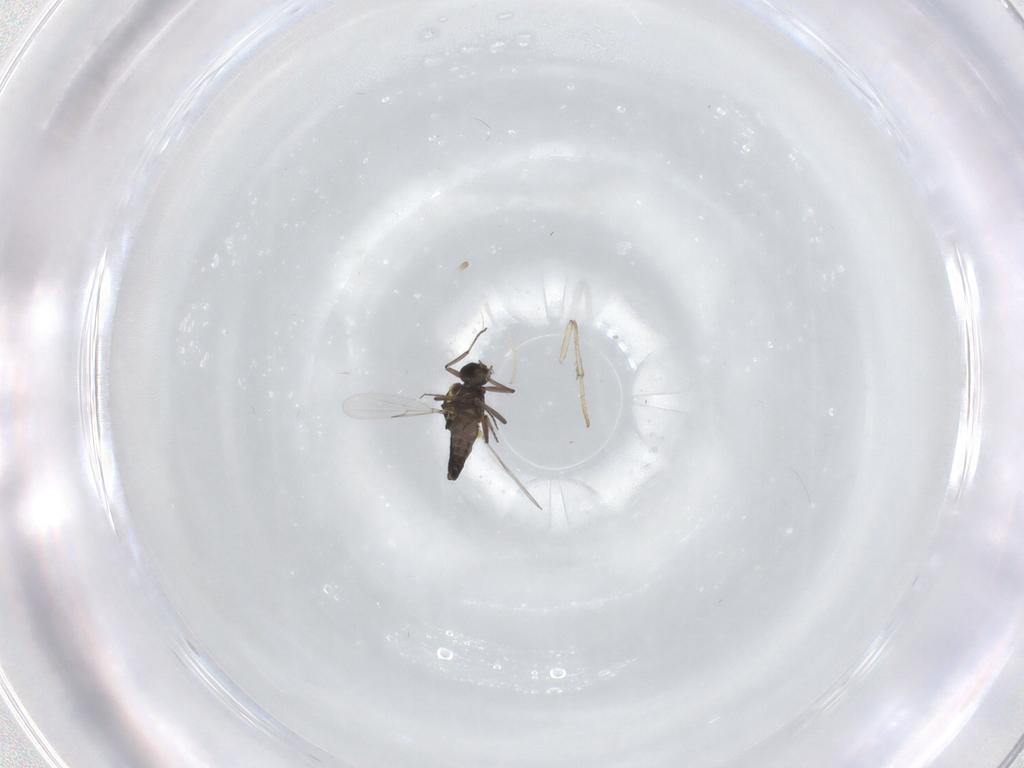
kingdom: Animalia
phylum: Arthropoda
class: Insecta
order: Diptera
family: Ceratopogonidae
